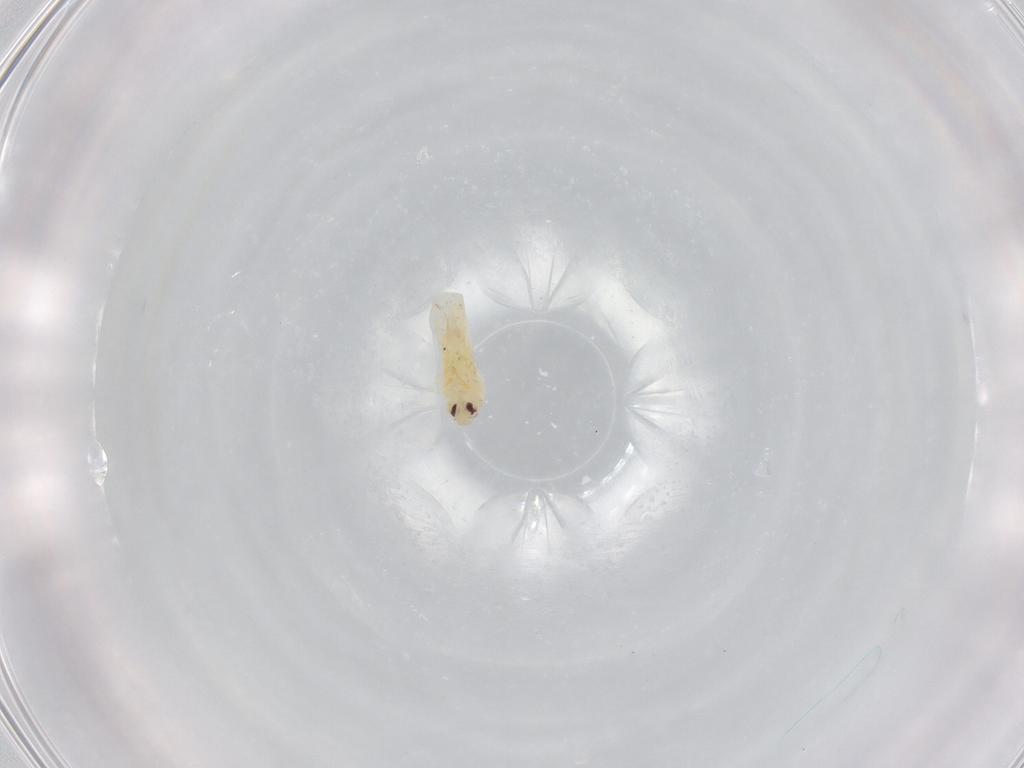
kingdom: Animalia
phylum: Arthropoda
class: Insecta
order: Hemiptera
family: Aleyrodidae
